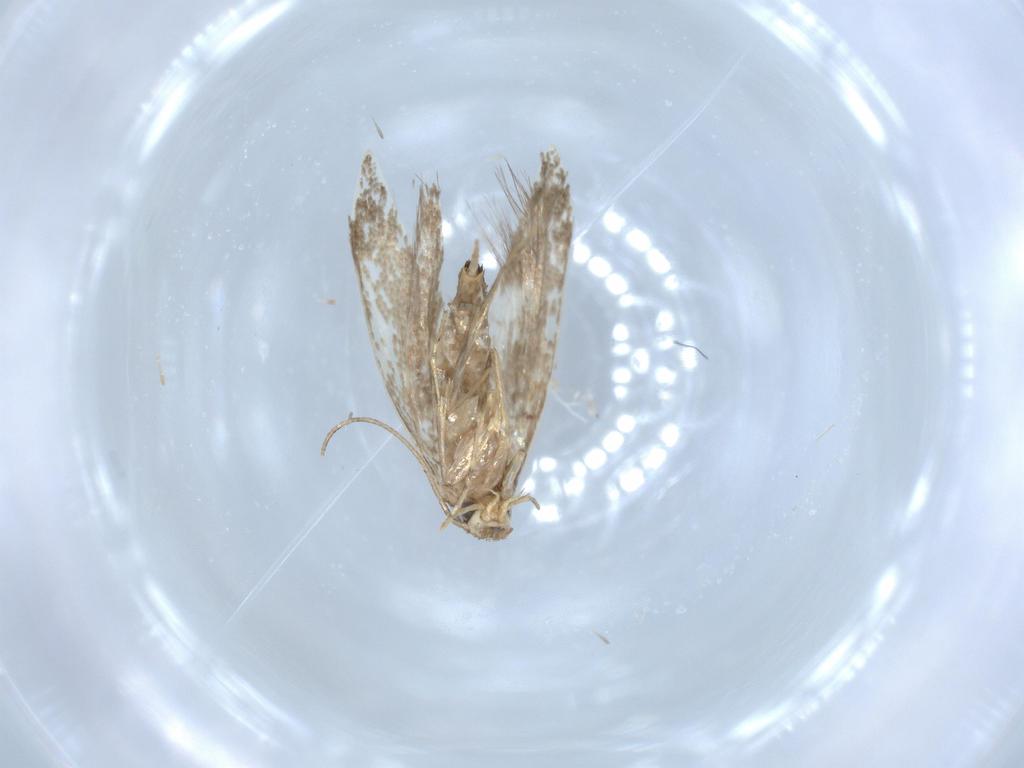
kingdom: Animalia
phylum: Arthropoda
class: Insecta
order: Lepidoptera
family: Tineidae
